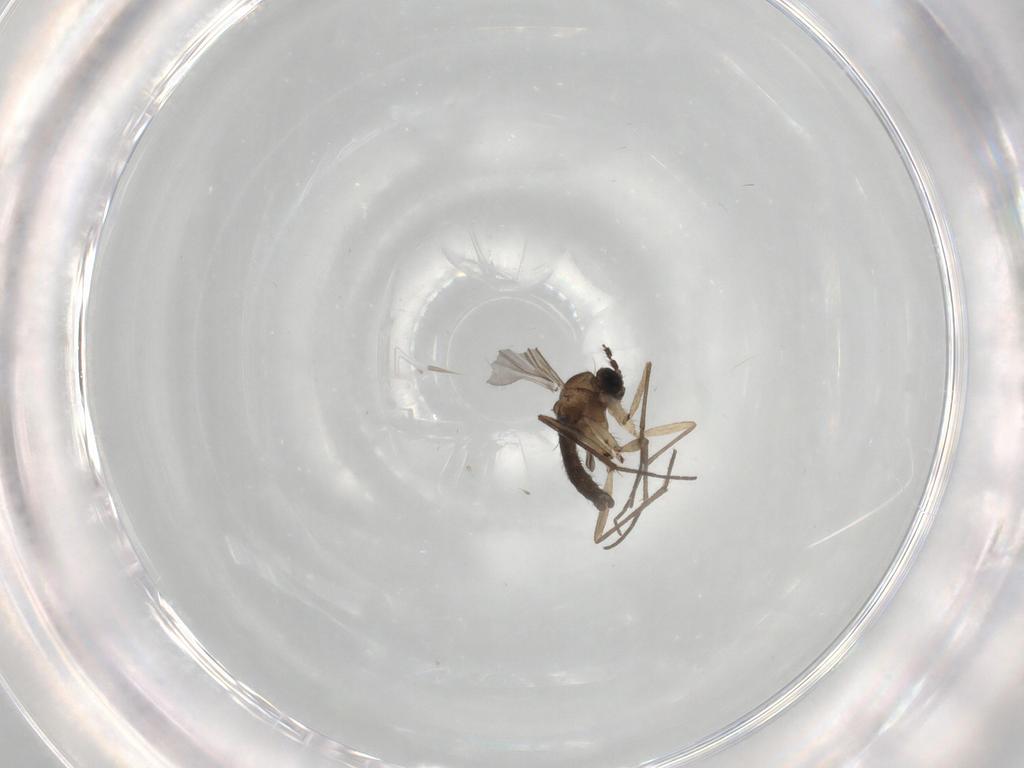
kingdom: Animalia
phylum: Arthropoda
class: Insecta
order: Diptera
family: Sciaridae
